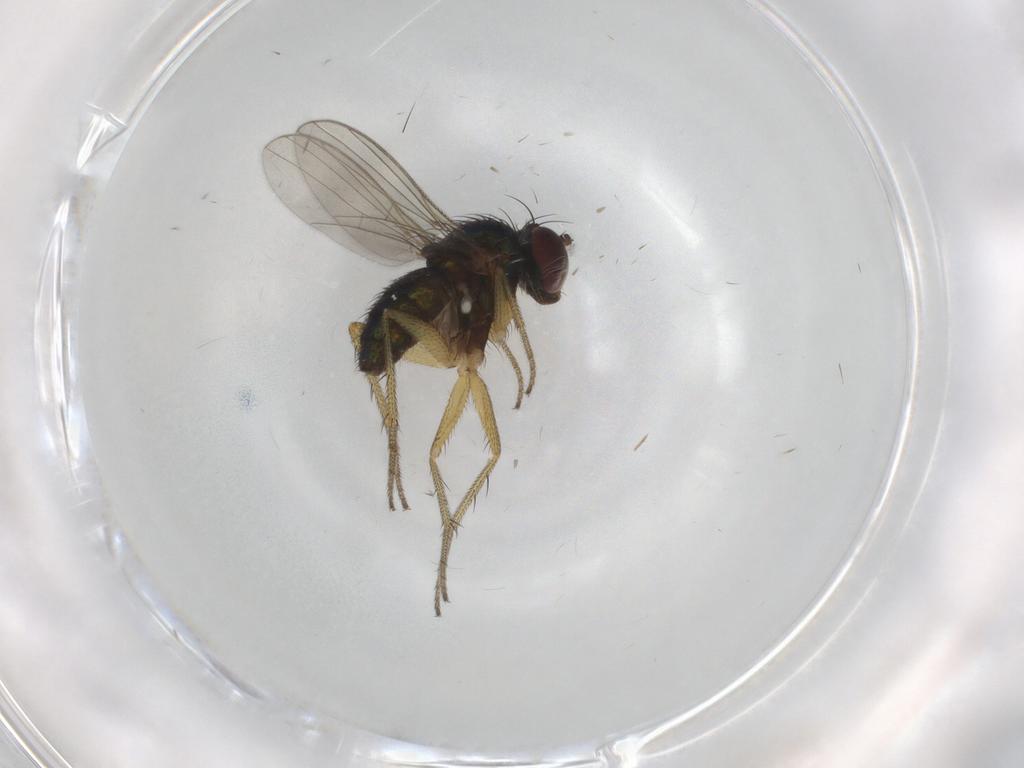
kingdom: Animalia
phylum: Arthropoda
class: Insecta
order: Diptera
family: Dolichopodidae
